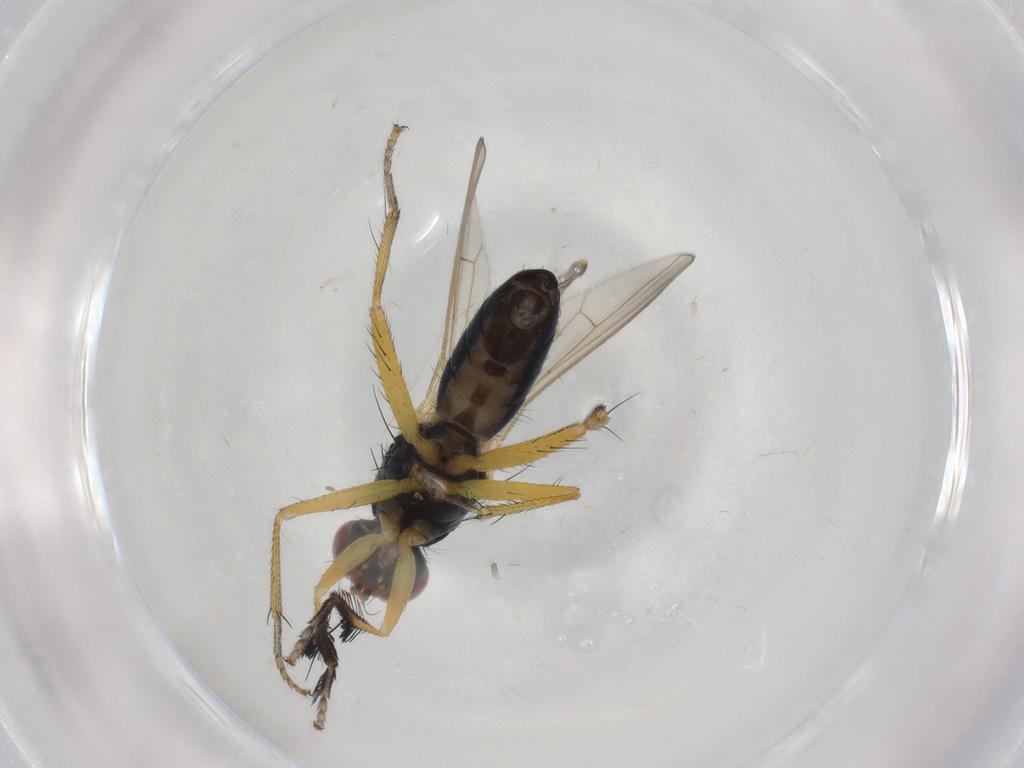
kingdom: Animalia
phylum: Arthropoda
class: Insecta
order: Diptera
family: Muscidae
